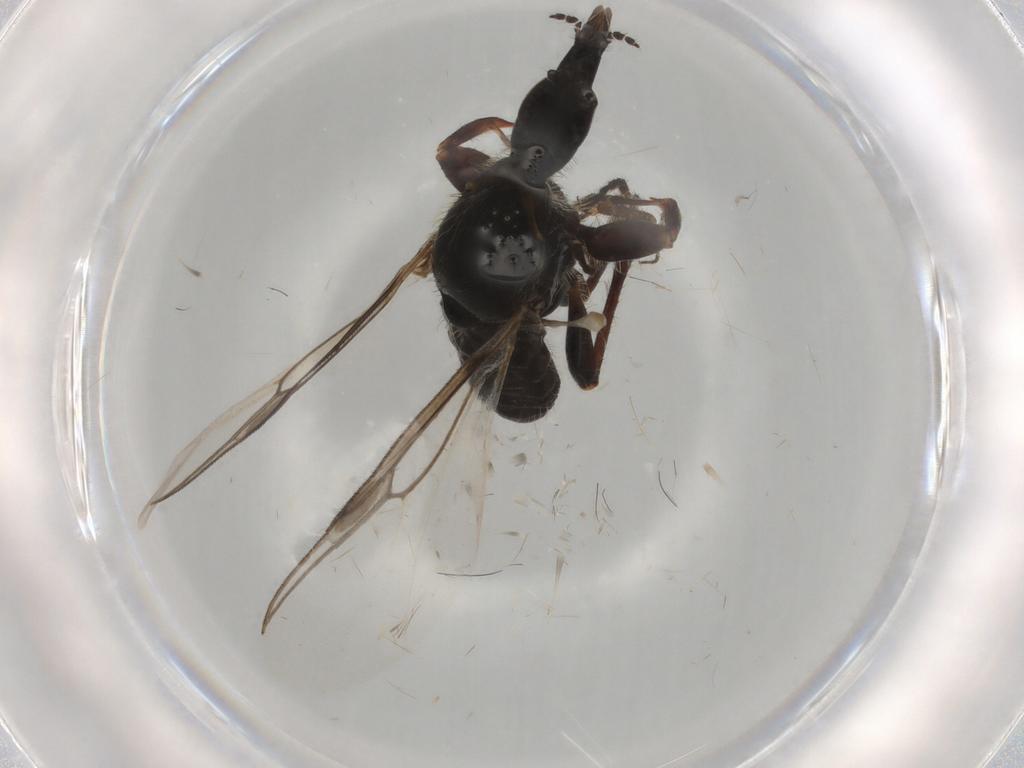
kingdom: Animalia
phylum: Arthropoda
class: Insecta
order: Diptera
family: Bibionidae
